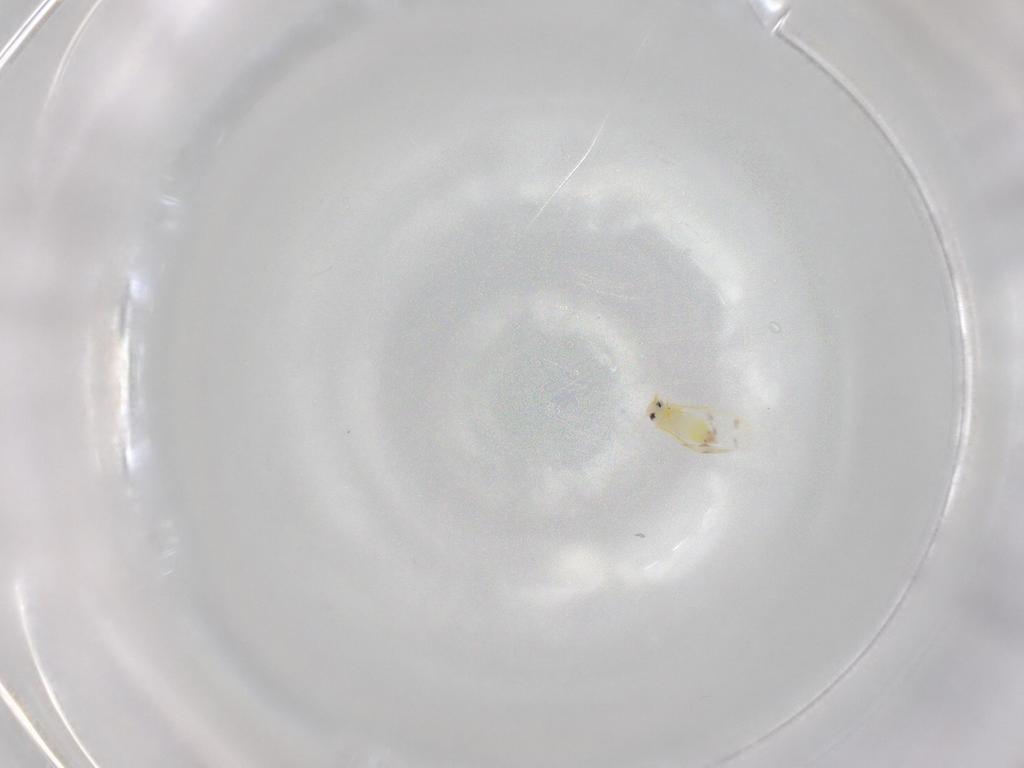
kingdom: Animalia
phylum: Arthropoda
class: Insecta
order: Hemiptera
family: Aleyrodidae
